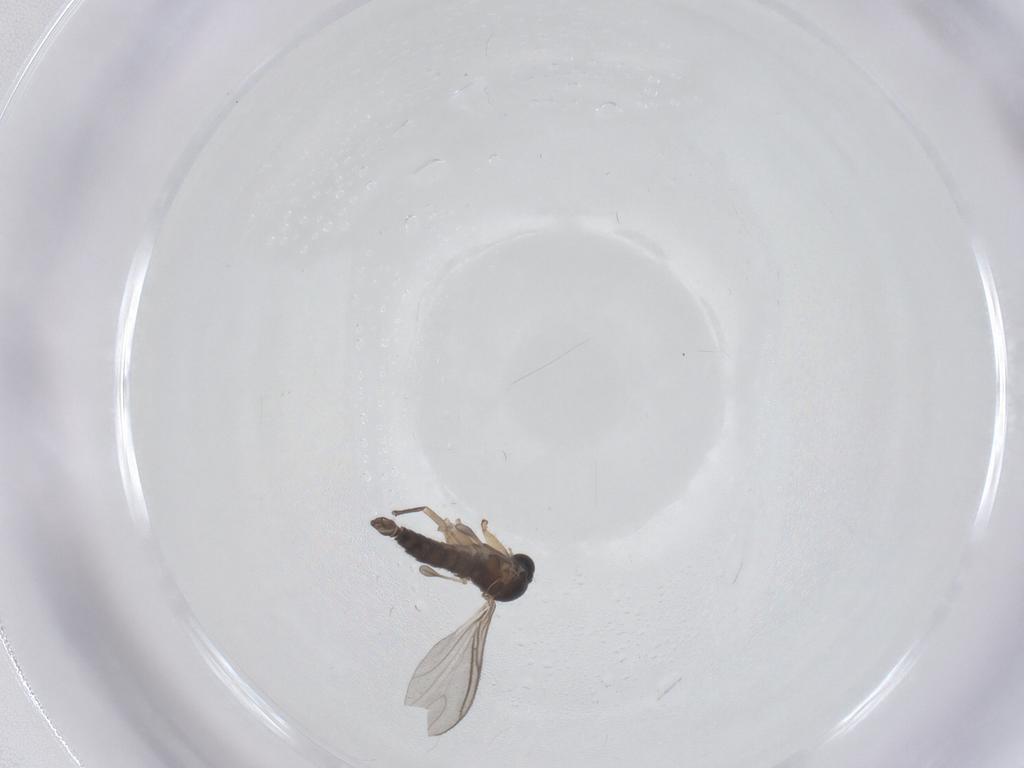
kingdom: Animalia
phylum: Arthropoda
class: Insecta
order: Diptera
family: Sciaridae
